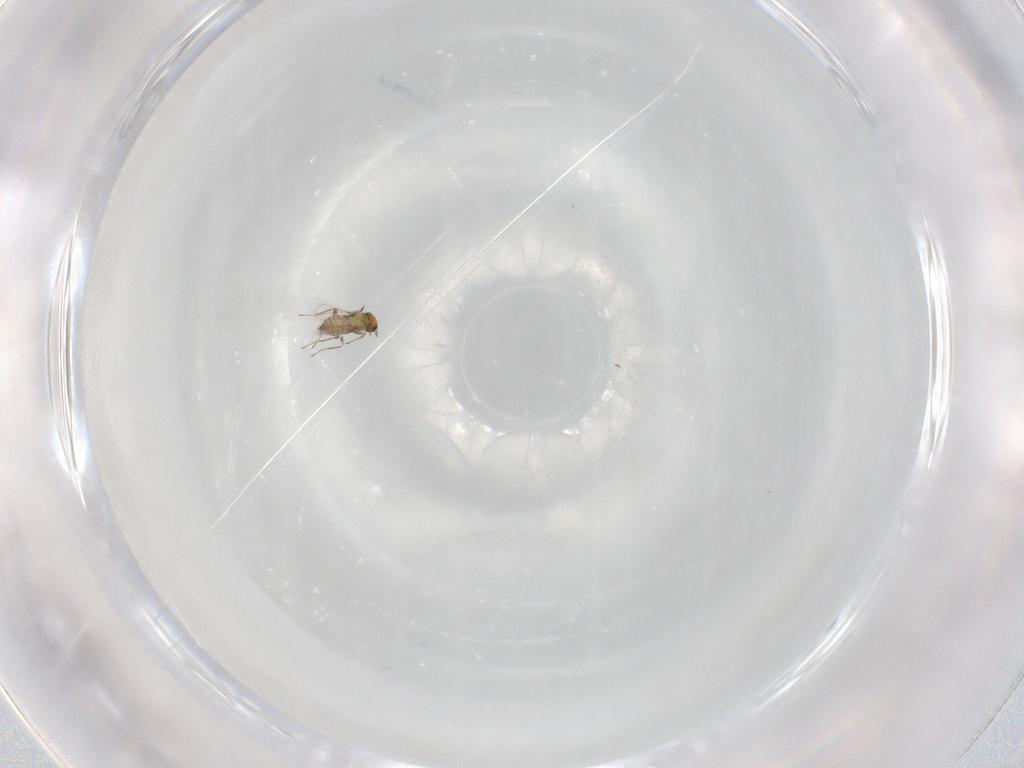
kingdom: Animalia
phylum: Arthropoda
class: Insecta
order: Hymenoptera
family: Trichogrammatidae
